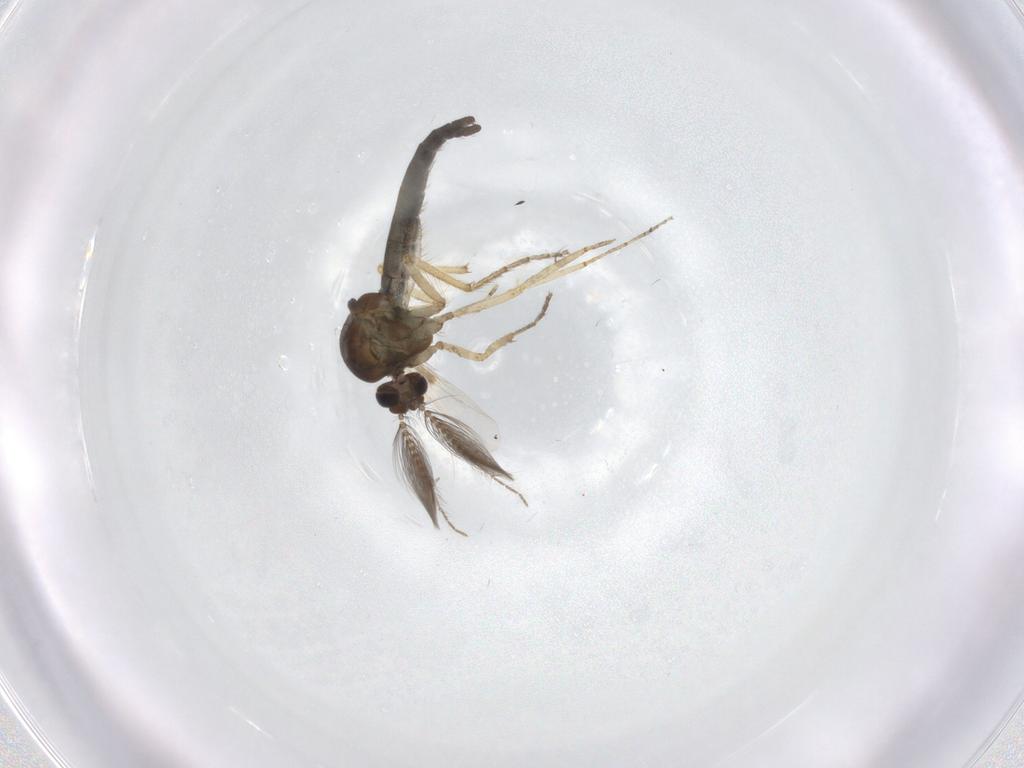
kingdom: Animalia
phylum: Arthropoda
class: Insecta
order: Diptera
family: Ceratopogonidae
